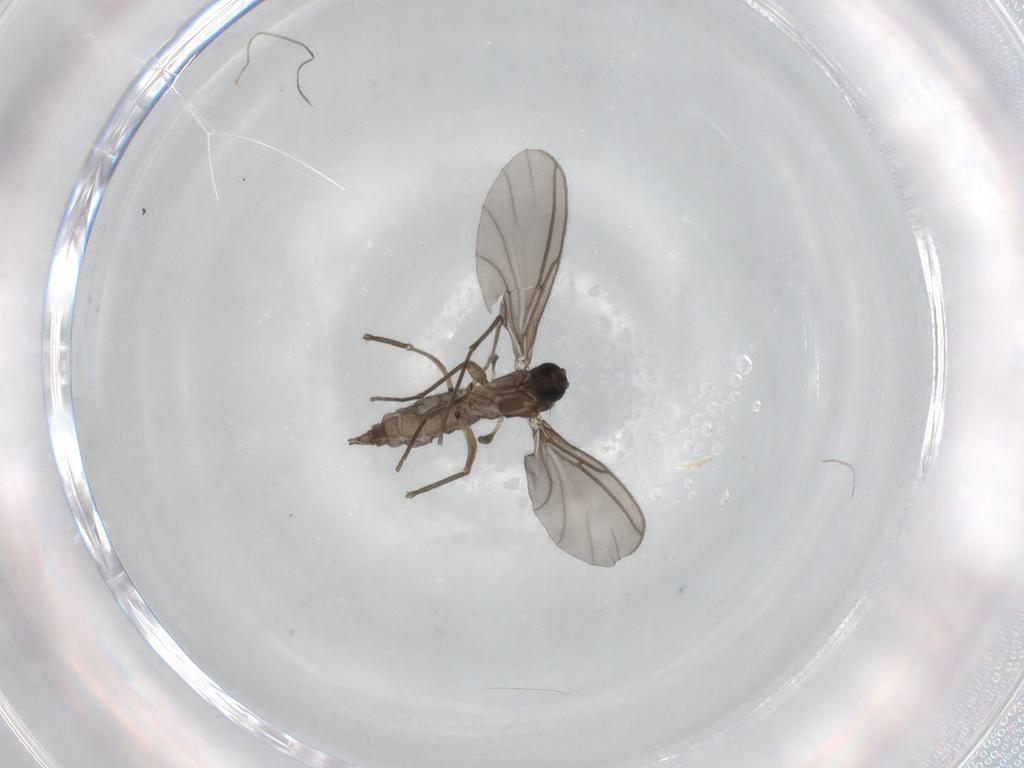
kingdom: Animalia
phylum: Arthropoda
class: Insecta
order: Diptera
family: Sciaridae
